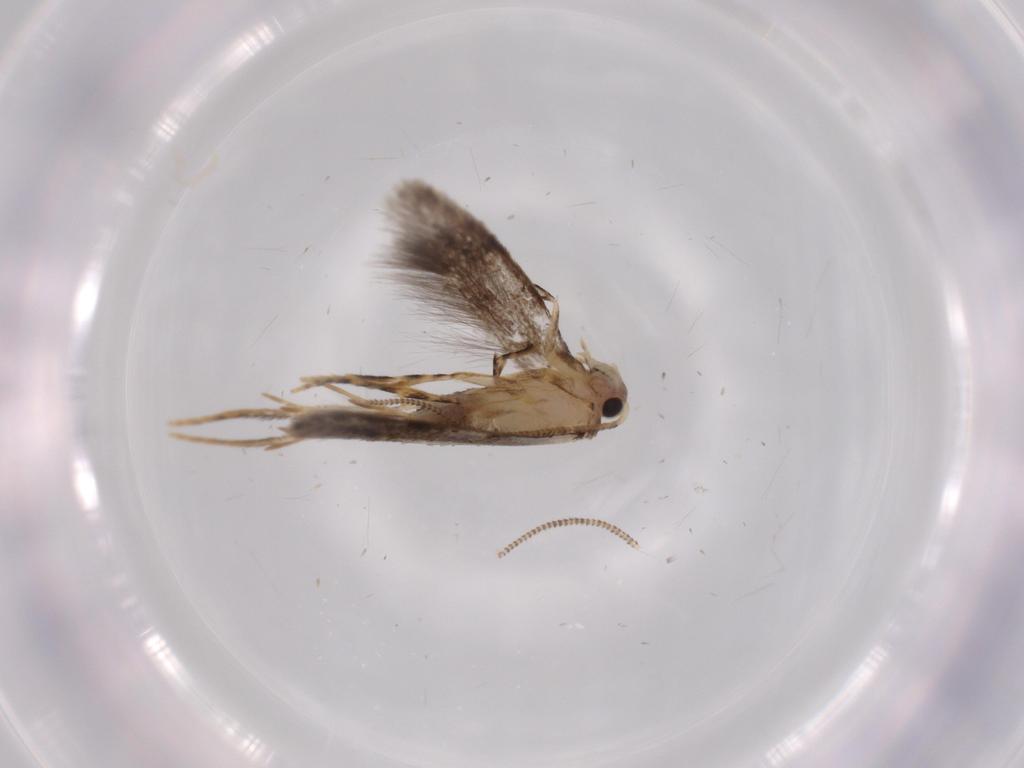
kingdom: Animalia
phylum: Arthropoda
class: Insecta
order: Lepidoptera
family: Tineidae
